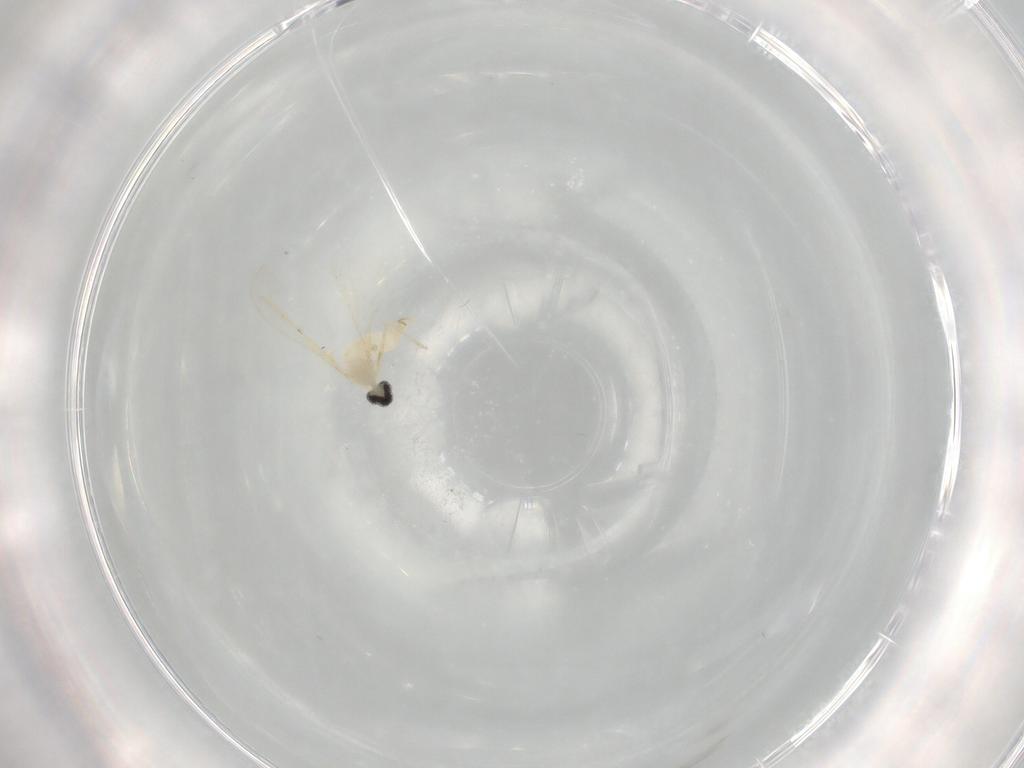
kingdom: Animalia
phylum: Arthropoda
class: Insecta
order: Diptera
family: Cecidomyiidae
